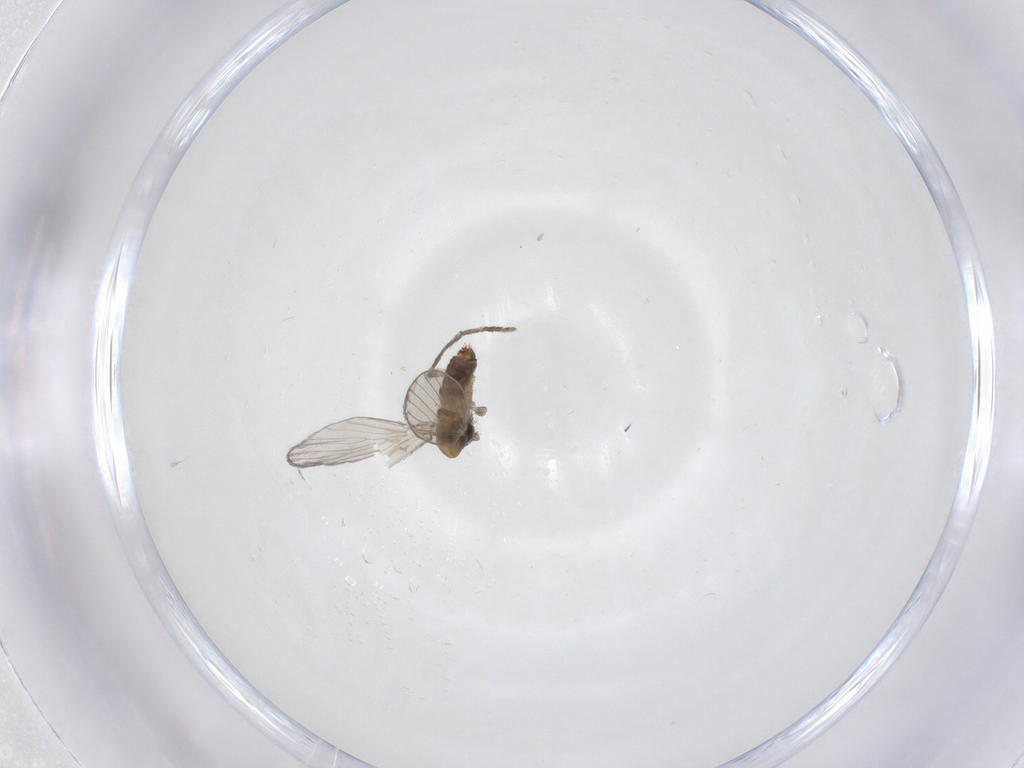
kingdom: Animalia
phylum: Arthropoda
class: Insecta
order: Diptera
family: Psychodidae
